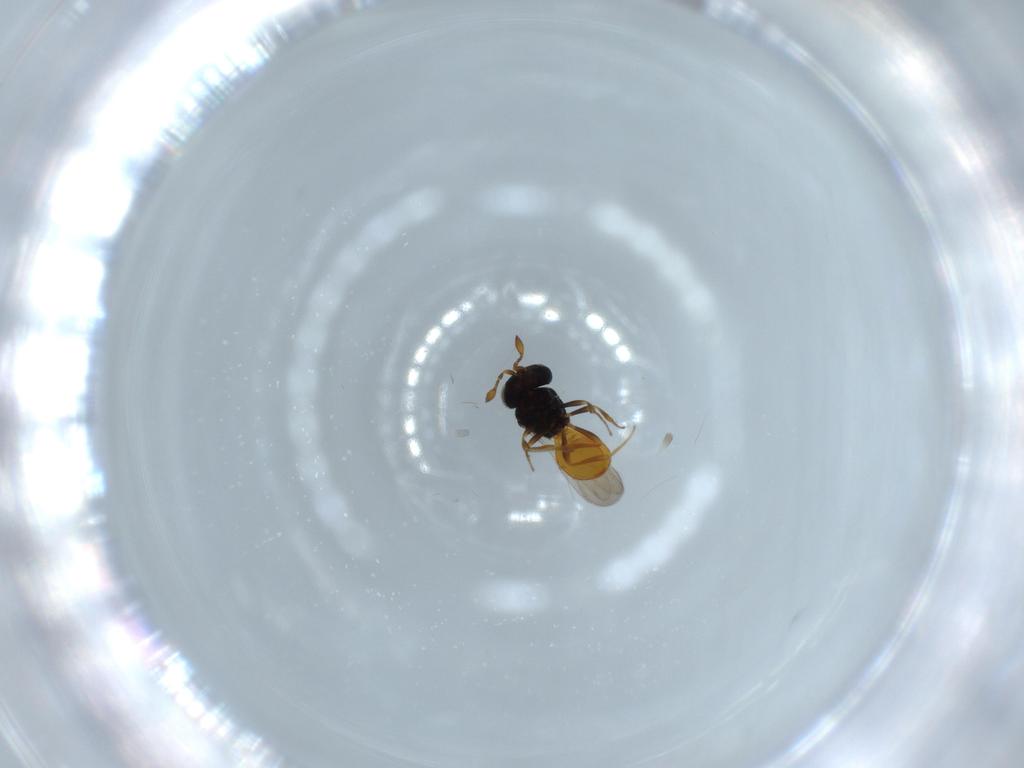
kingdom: Animalia
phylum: Arthropoda
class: Insecta
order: Hymenoptera
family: Scelionidae
